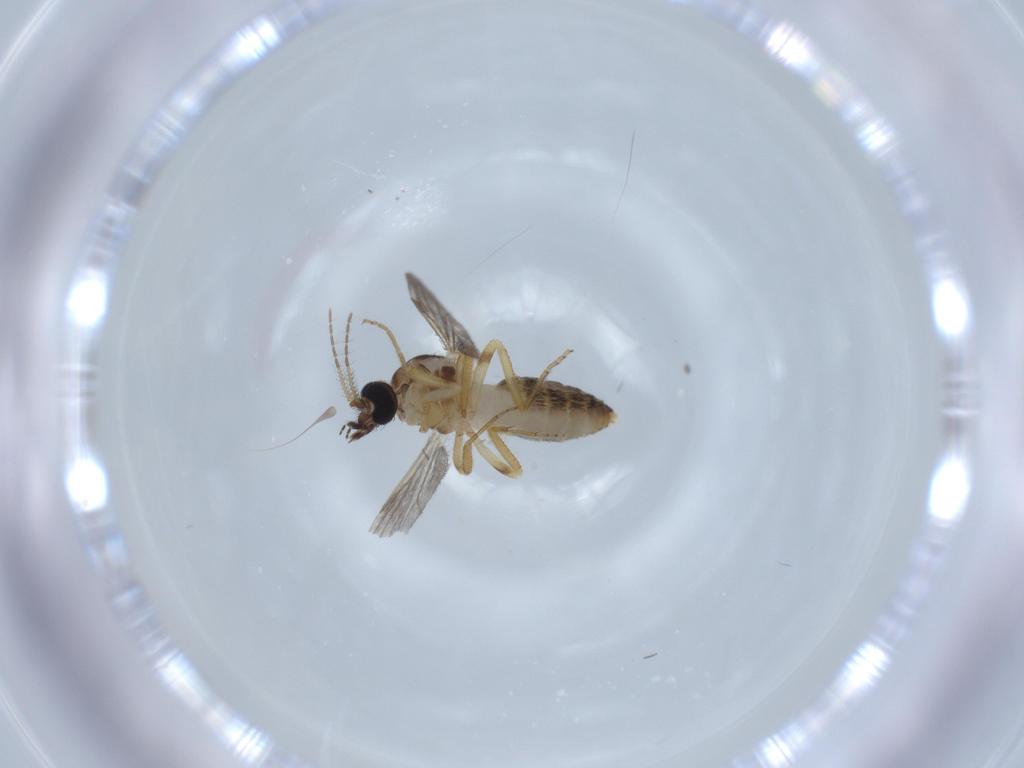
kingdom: Animalia
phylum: Arthropoda
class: Insecta
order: Diptera
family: Sciaridae
